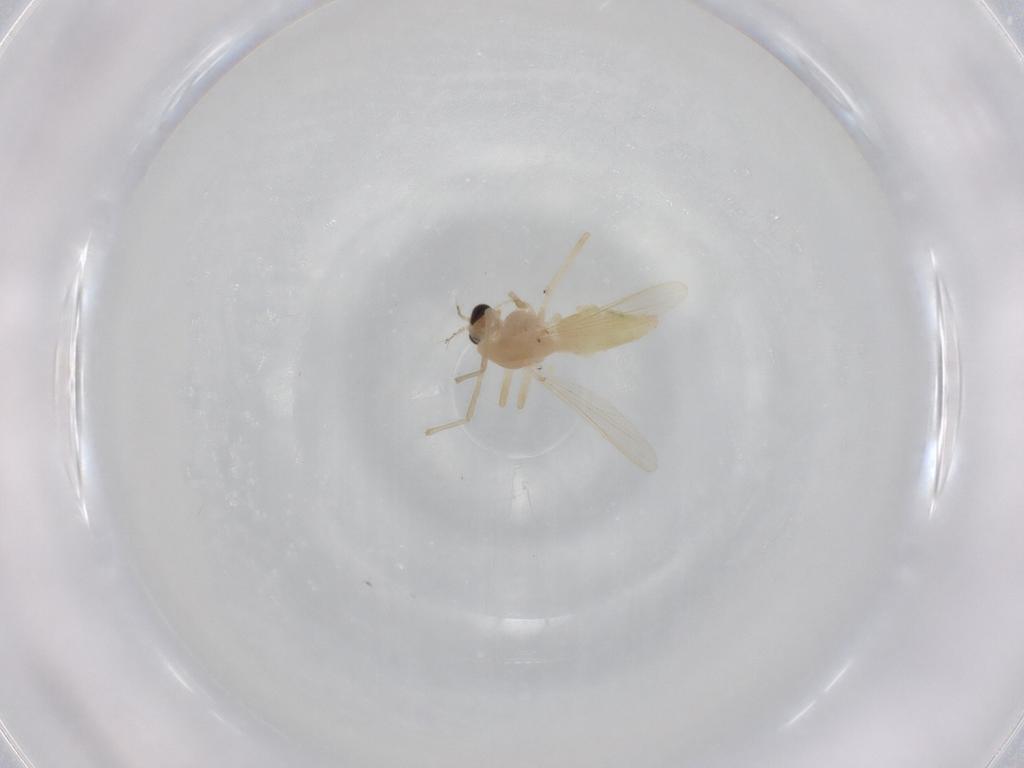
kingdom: Animalia
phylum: Arthropoda
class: Insecta
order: Diptera
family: Chironomidae
